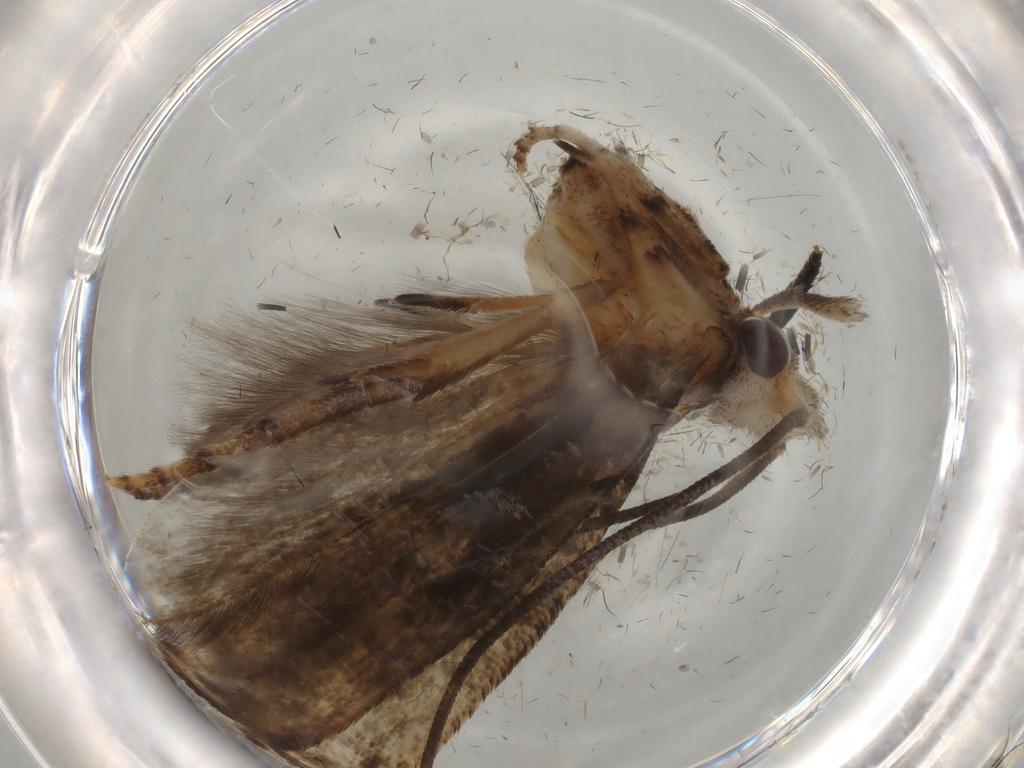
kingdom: Animalia
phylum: Arthropoda
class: Insecta
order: Lepidoptera
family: Yponomeutidae
